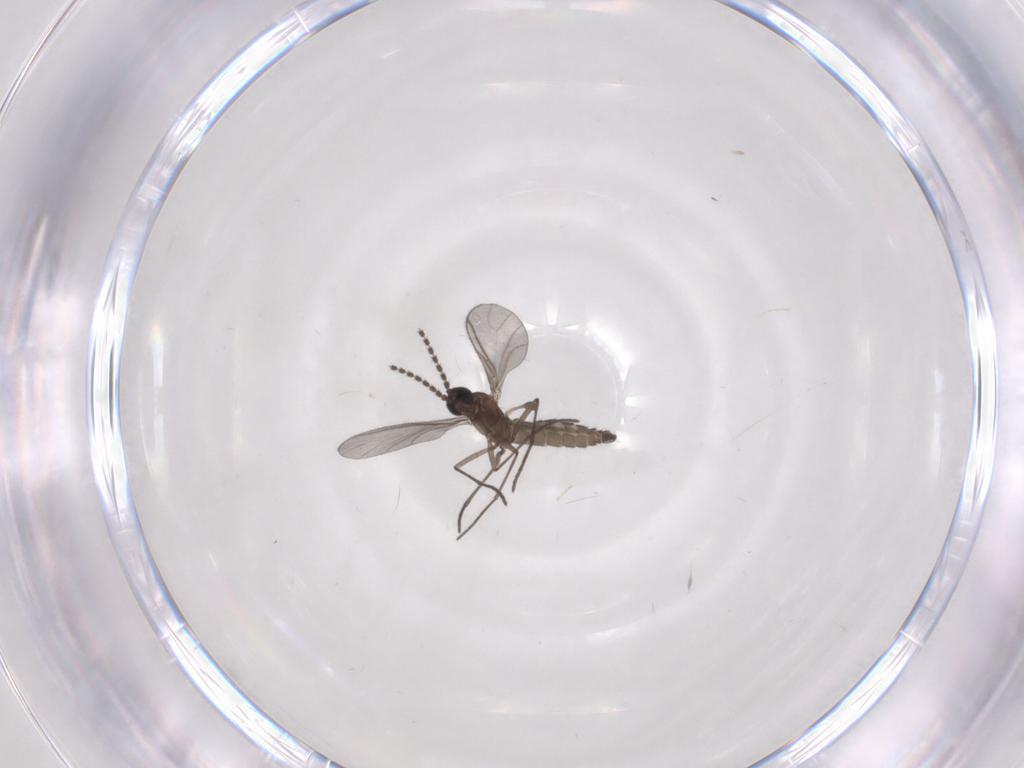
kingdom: Animalia
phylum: Arthropoda
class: Insecta
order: Diptera
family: Sciaridae
